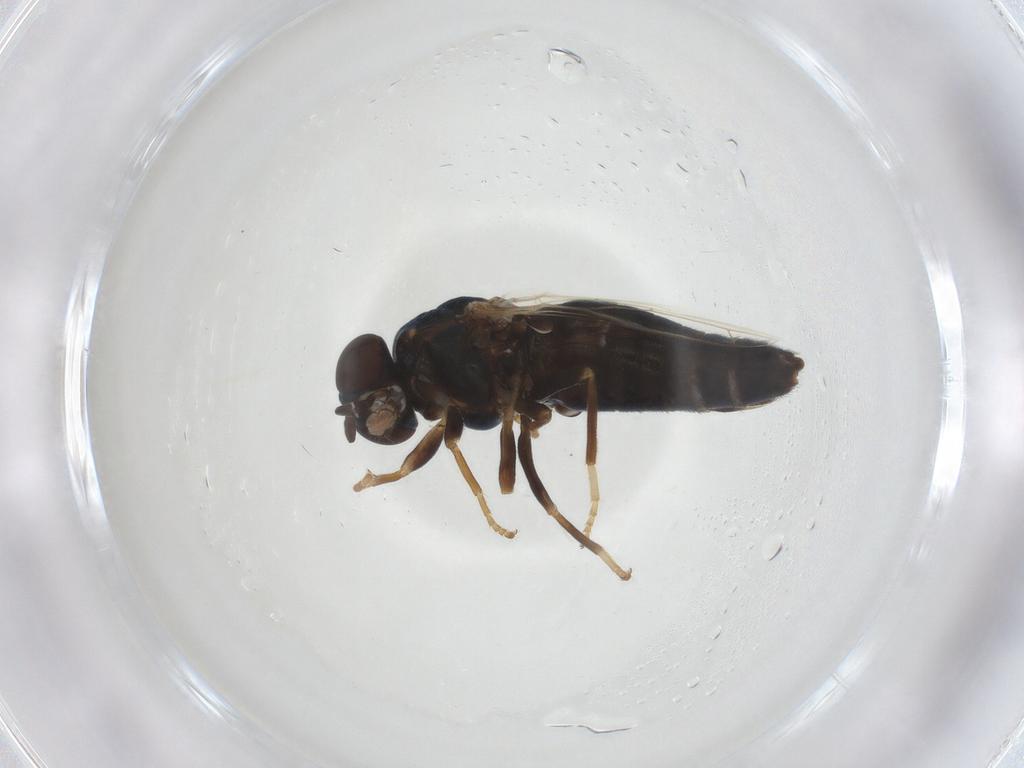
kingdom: Animalia
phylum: Arthropoda
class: Insecta
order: Diptera
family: Scenopinidae
